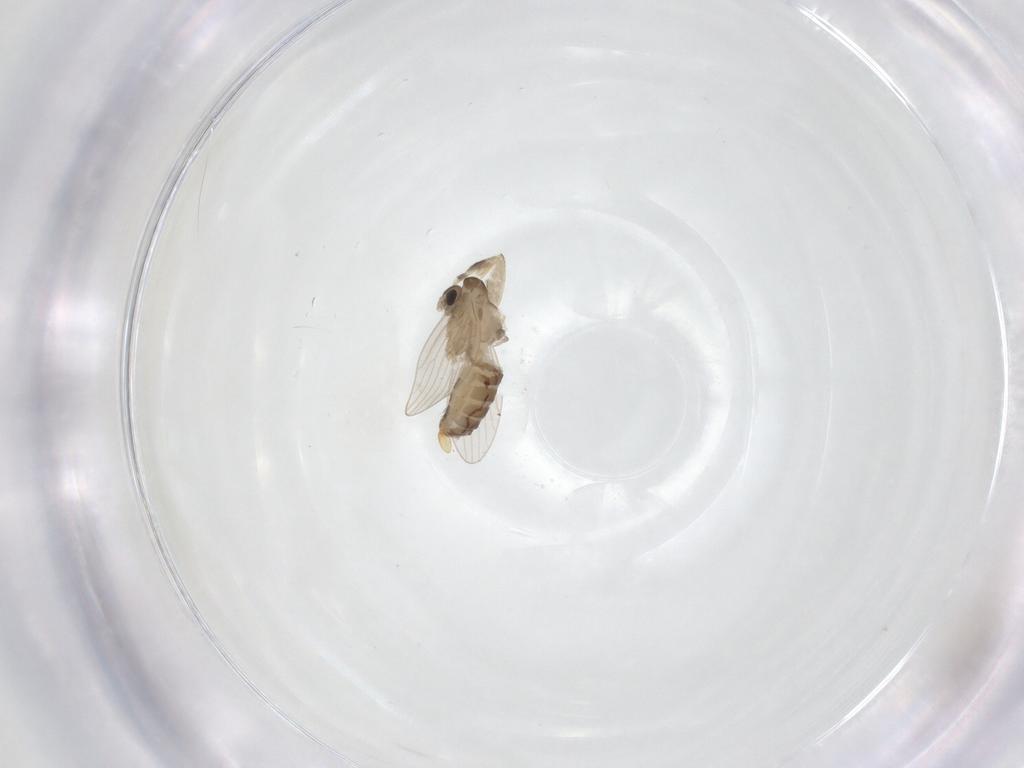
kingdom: Animalia
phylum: Arthropoda
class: Insecta
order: Diptera
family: Psychodidae
